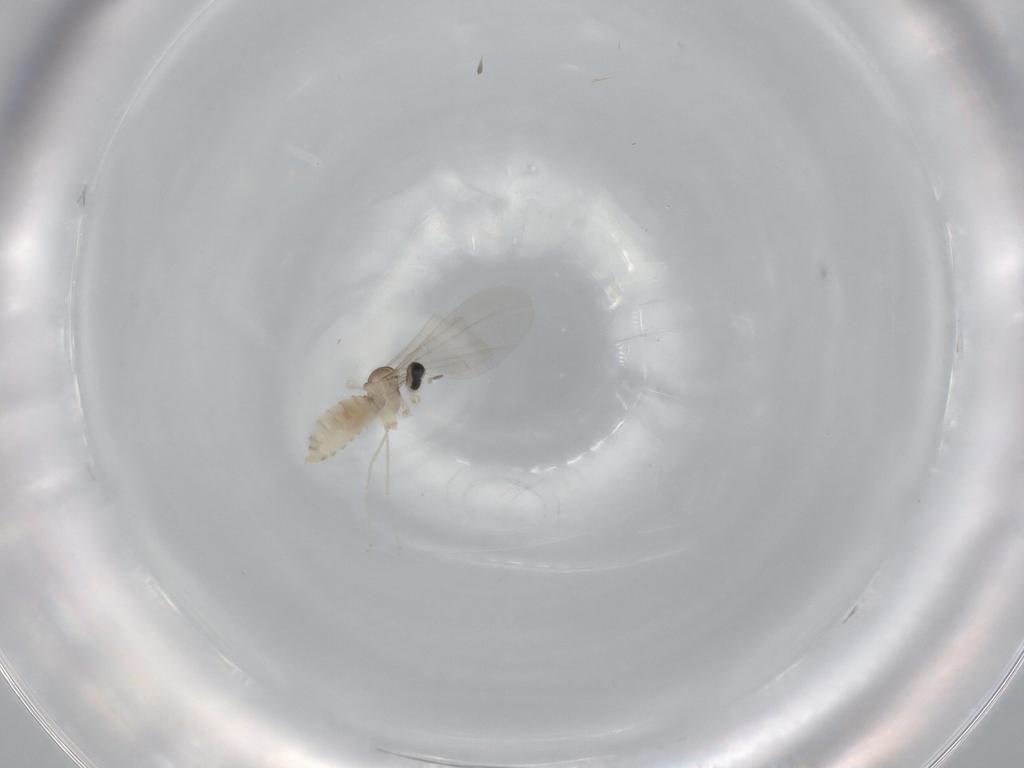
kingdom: Animalia
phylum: Arthropoda
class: Insecta
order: Diptera
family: Cecidomyiidae
